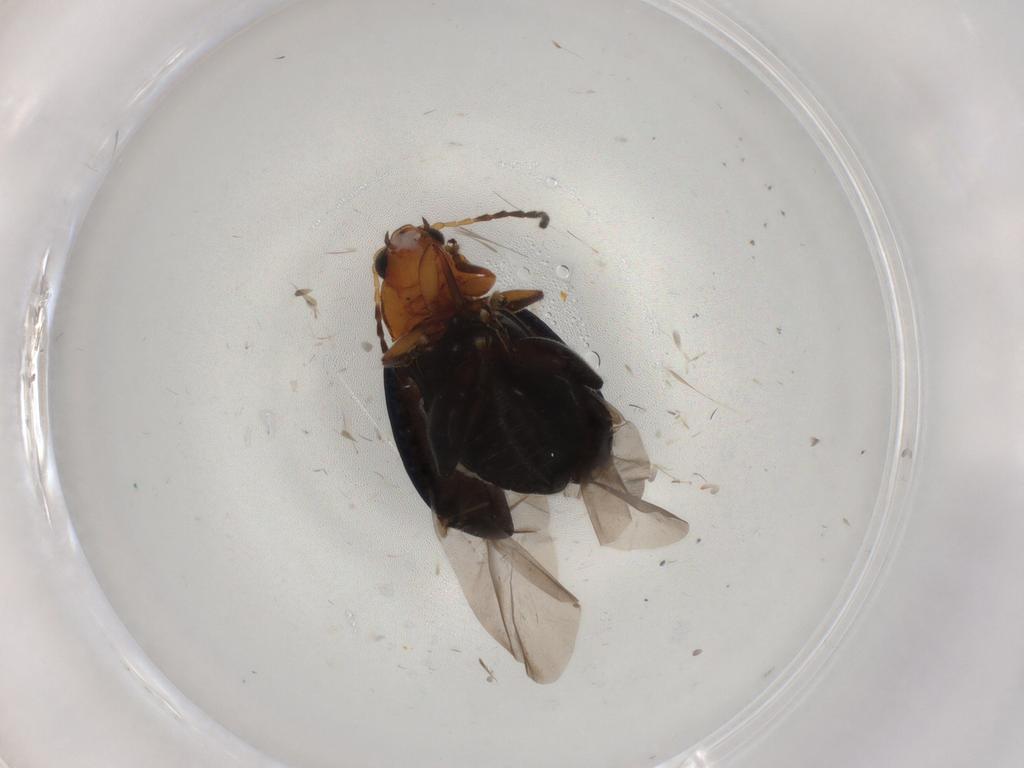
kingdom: Animalia
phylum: Arthropoda
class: Insecta
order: Coleoptera
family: Chrysomelidae
